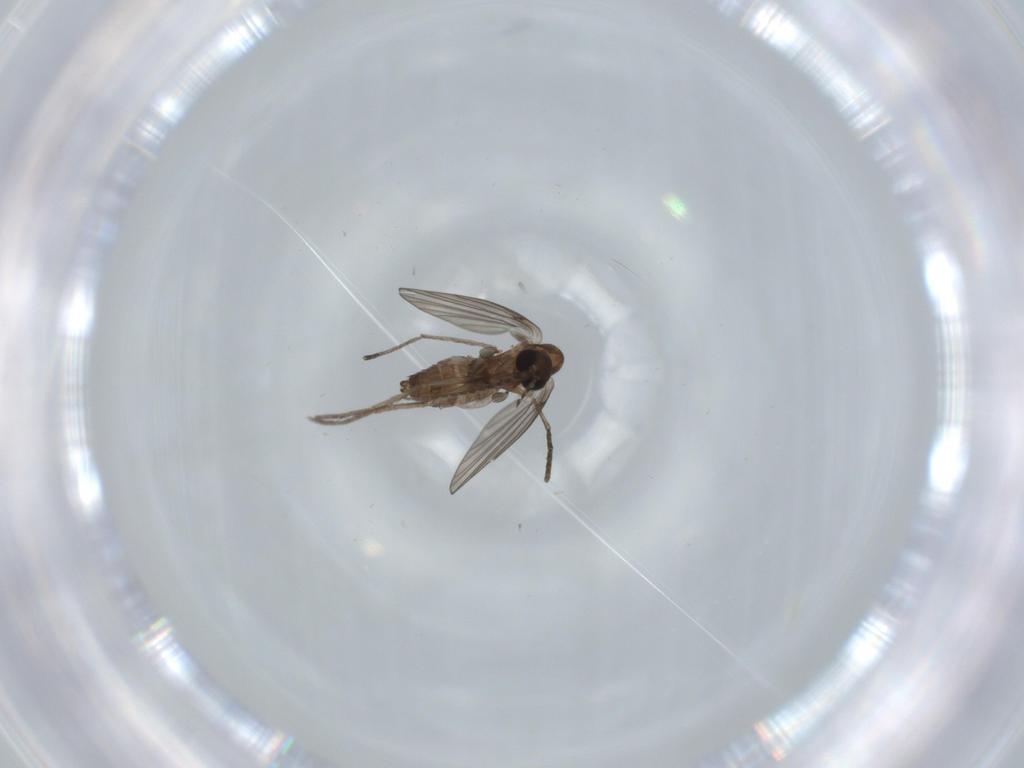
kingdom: Animalia
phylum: Arthropoda
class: Insecta
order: Diptera
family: Psychodidae
